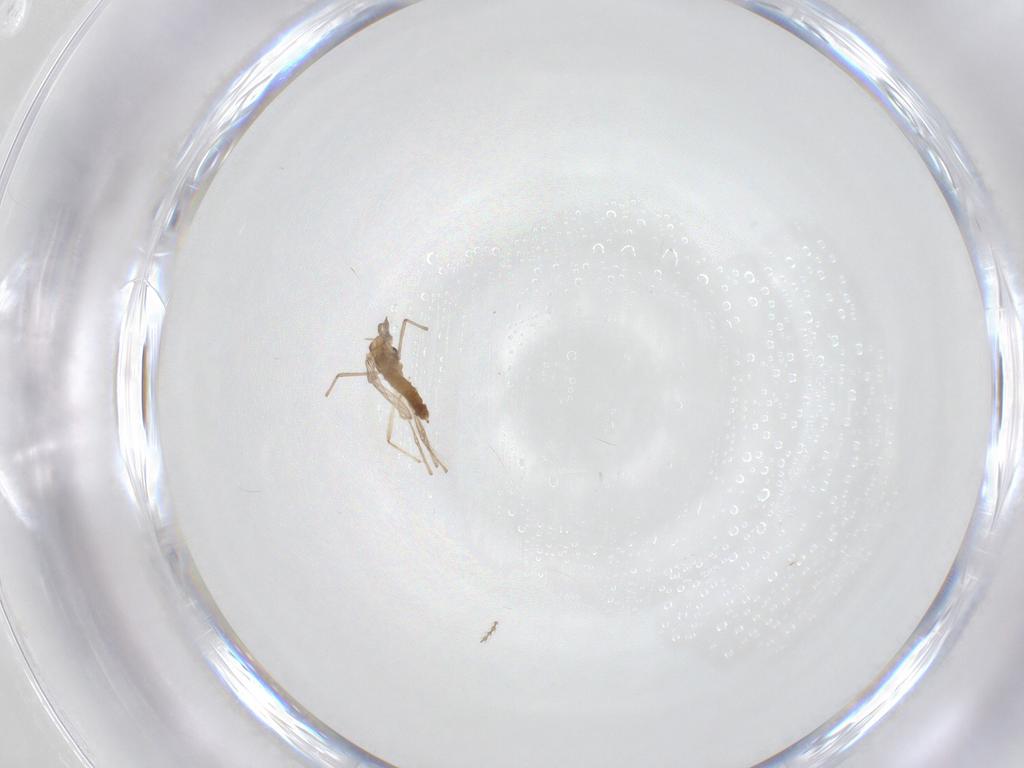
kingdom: Animalia
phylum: Arthropoda
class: Insecta
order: Diptera
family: Chironomidae
